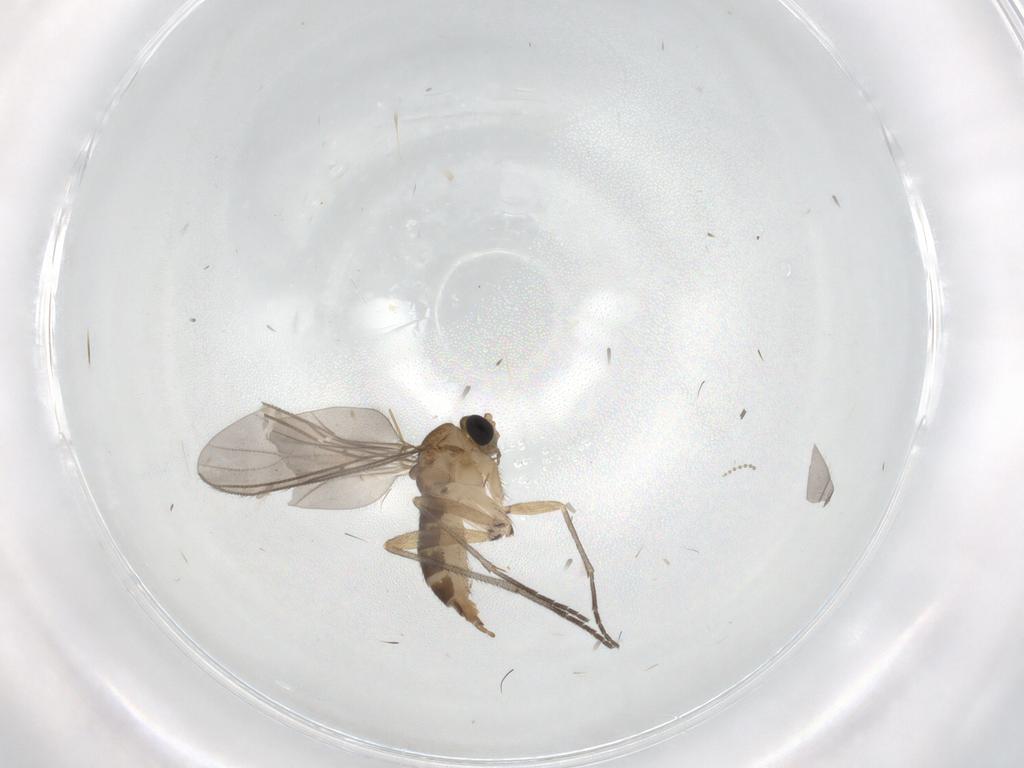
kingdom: Animalia
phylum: Arthropoda
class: Insecta
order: Diptera
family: Sciaridae
